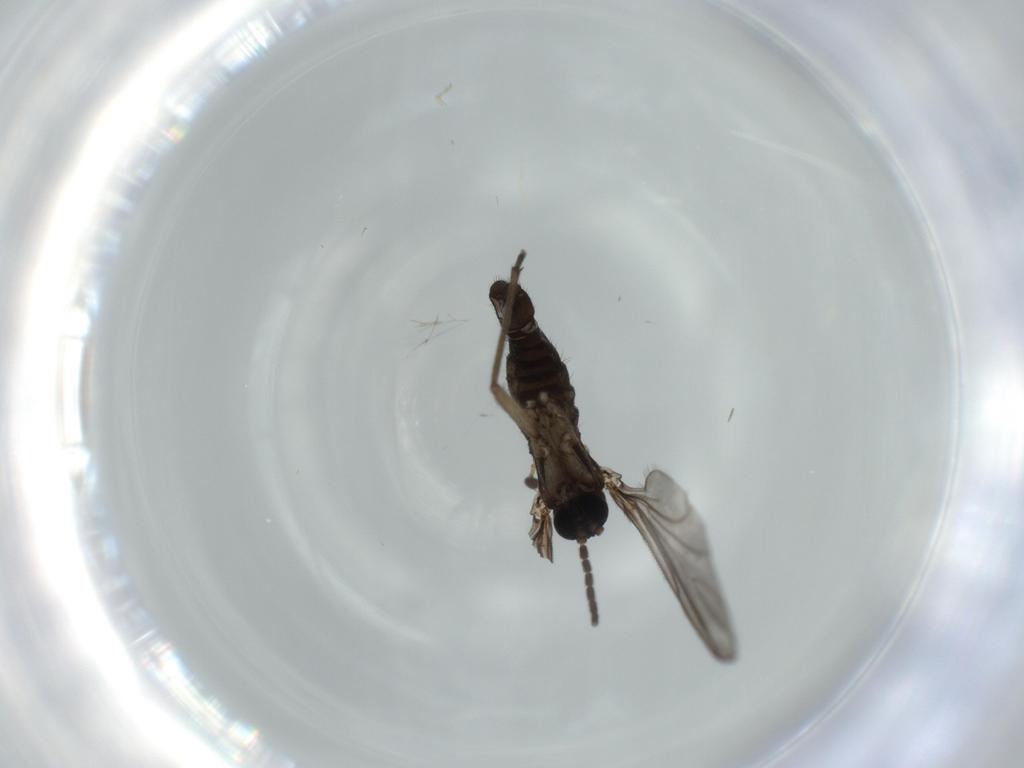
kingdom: Animalia
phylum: Arthropoda
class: Insecta
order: Diptera
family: Sciaridae
